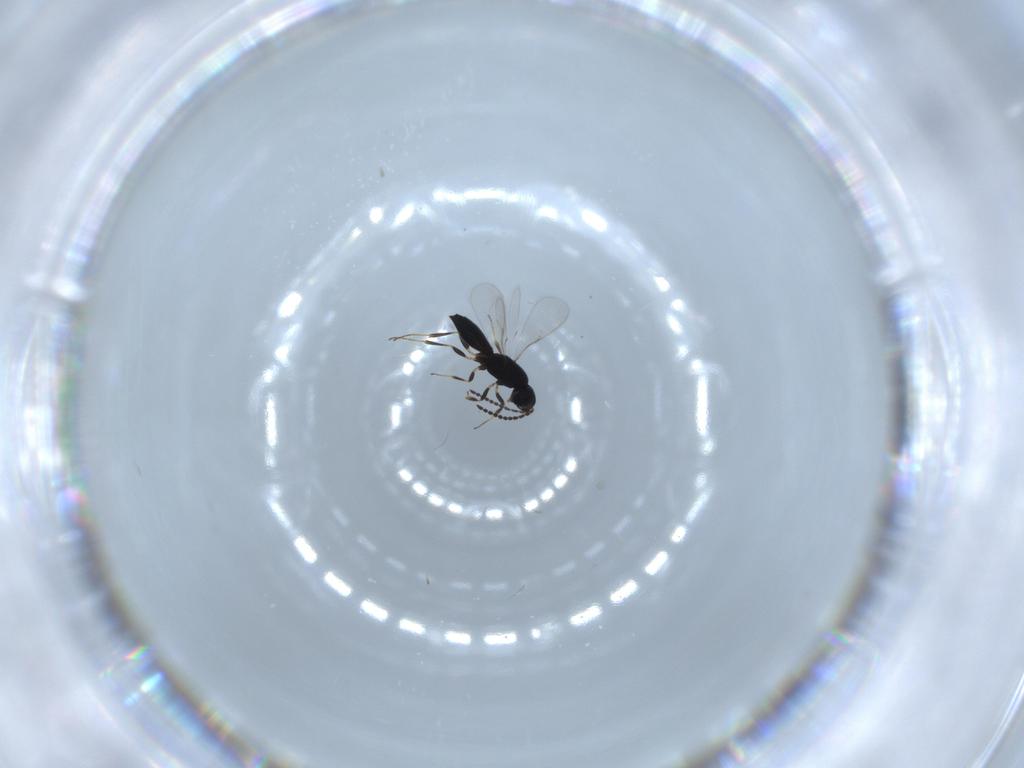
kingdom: Animalia
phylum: Arthropoda
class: Insecta
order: Hymenoptera
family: Scelionidae
